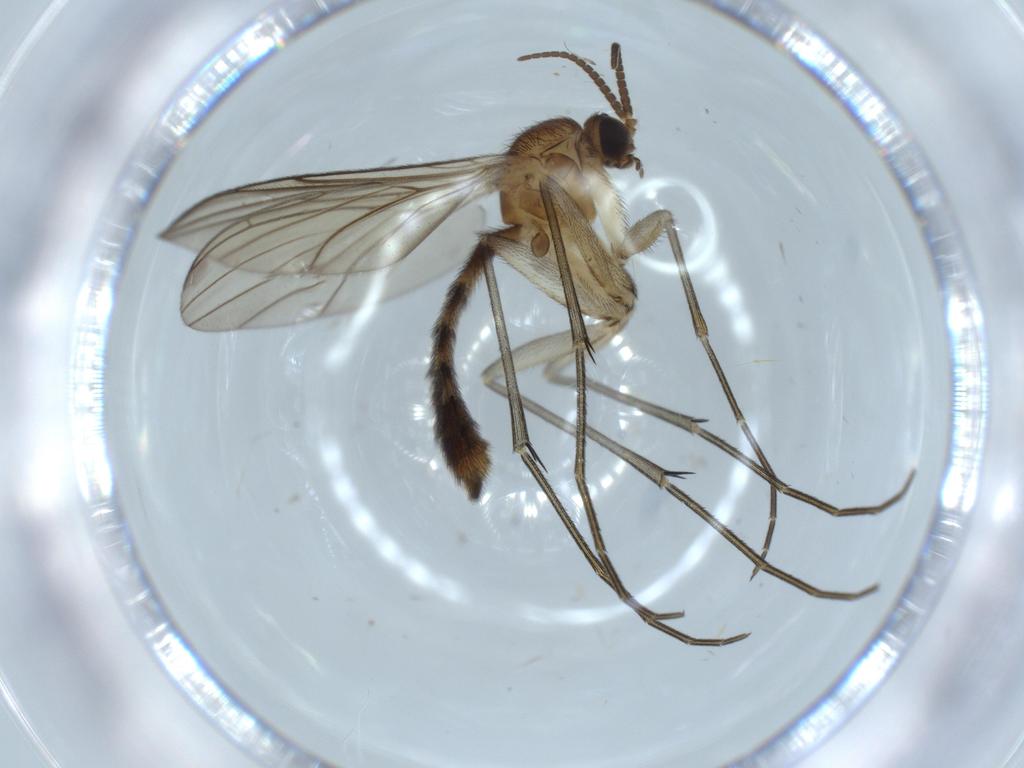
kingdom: Animalia
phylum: Arthropoda
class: Insecta
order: Diptera
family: Keroplatidae
